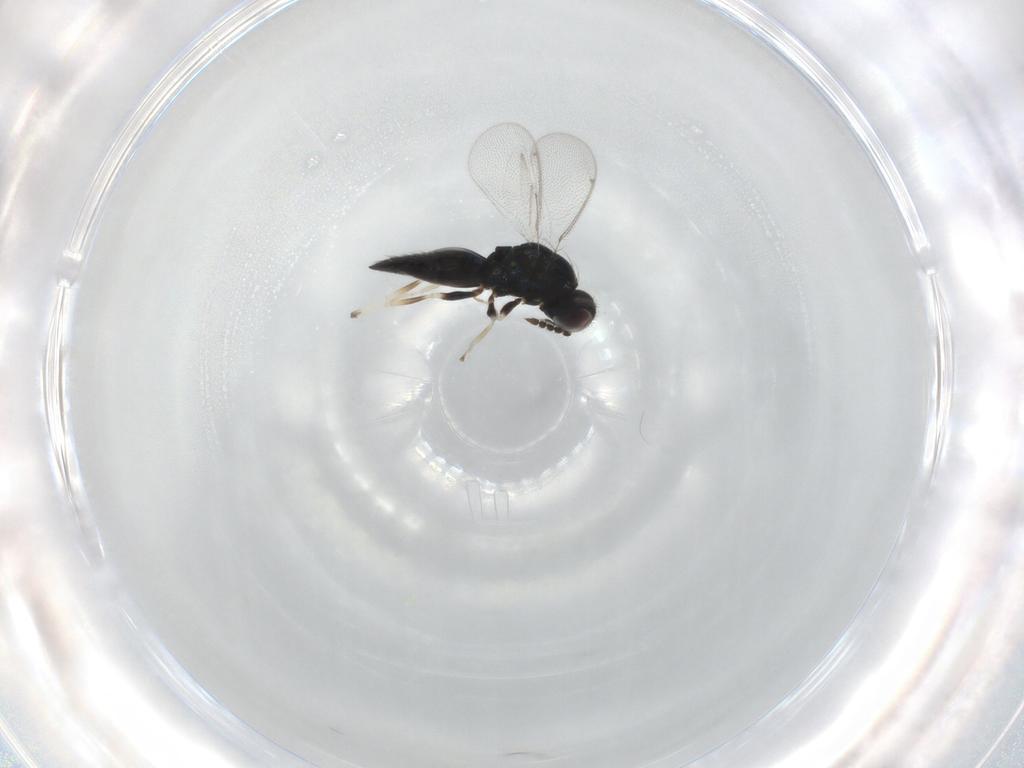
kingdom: Animalia
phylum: Arthropoda
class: Insecta
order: Hymenoptera
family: Eulophidae
